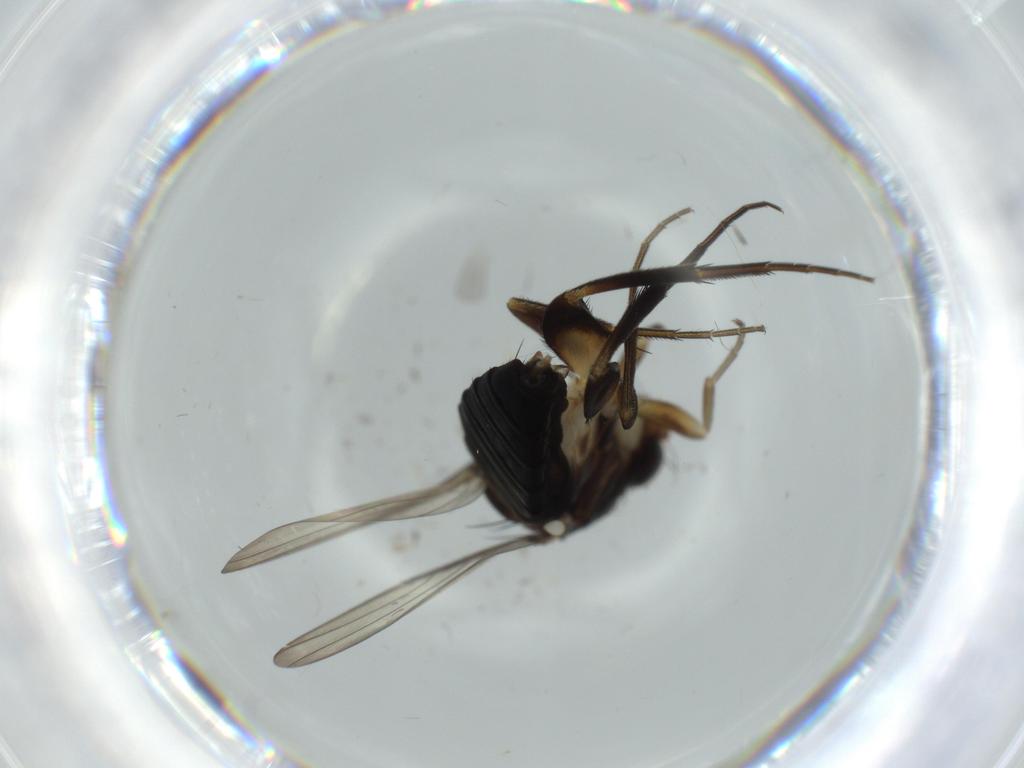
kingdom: Animalia
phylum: Arthropoda
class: Insecta
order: Diptera
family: Phoridae
